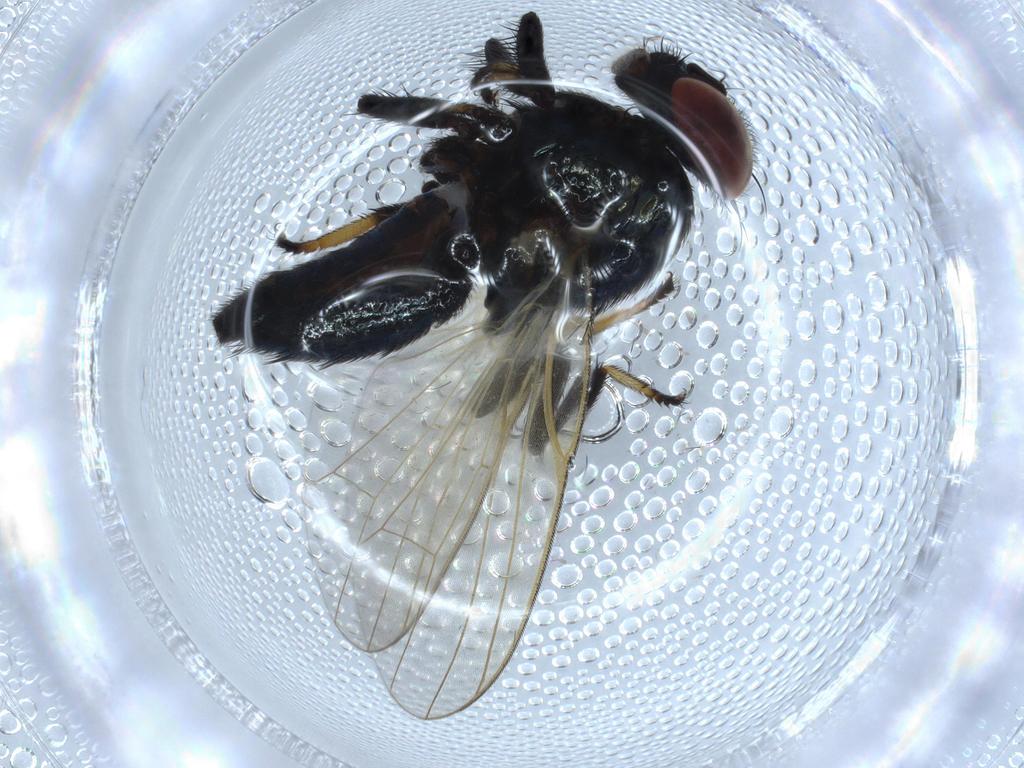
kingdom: Animalia
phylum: Arthropoda
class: Insecta
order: Diptera
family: Lonchaeidae
